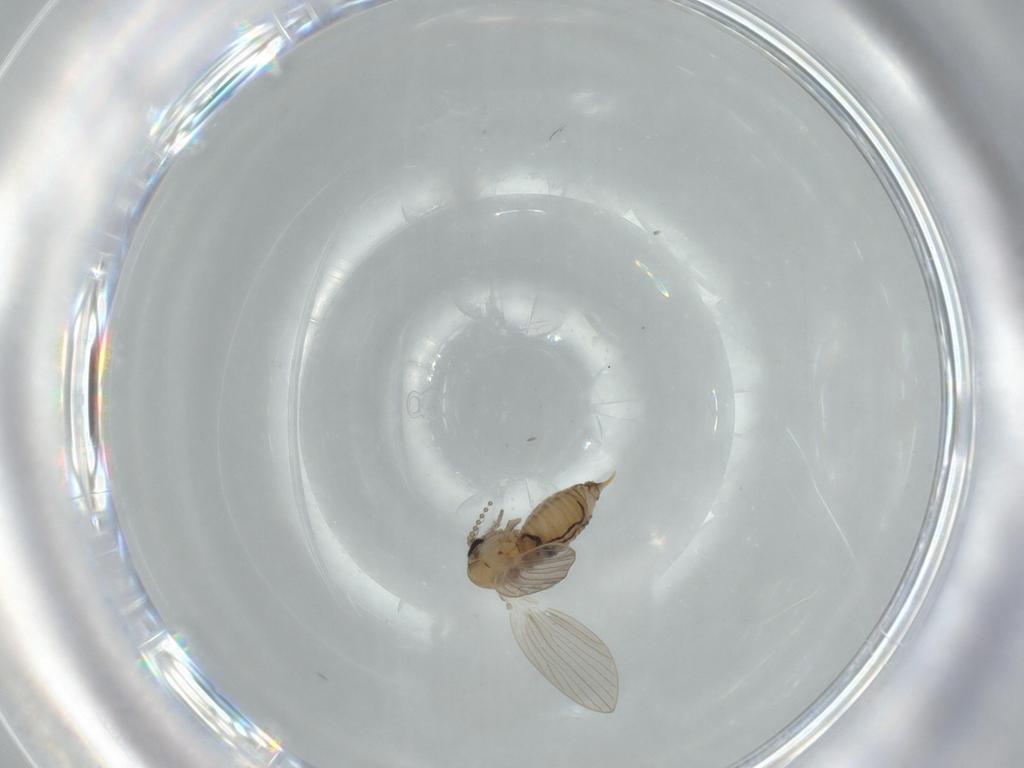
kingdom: Animalia
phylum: Arthropoda
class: Insecta
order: Diptera
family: Psychodidae
